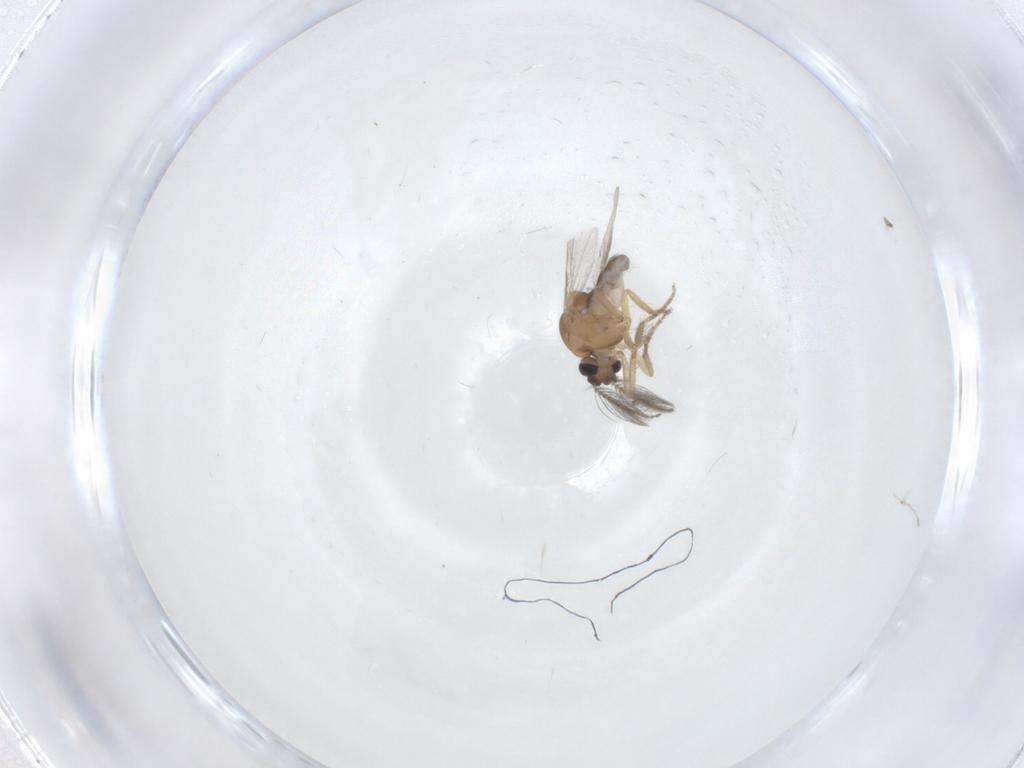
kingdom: Animalia
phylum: Arthropoda
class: Insecta
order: Diptera
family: Ceratopogonidae
